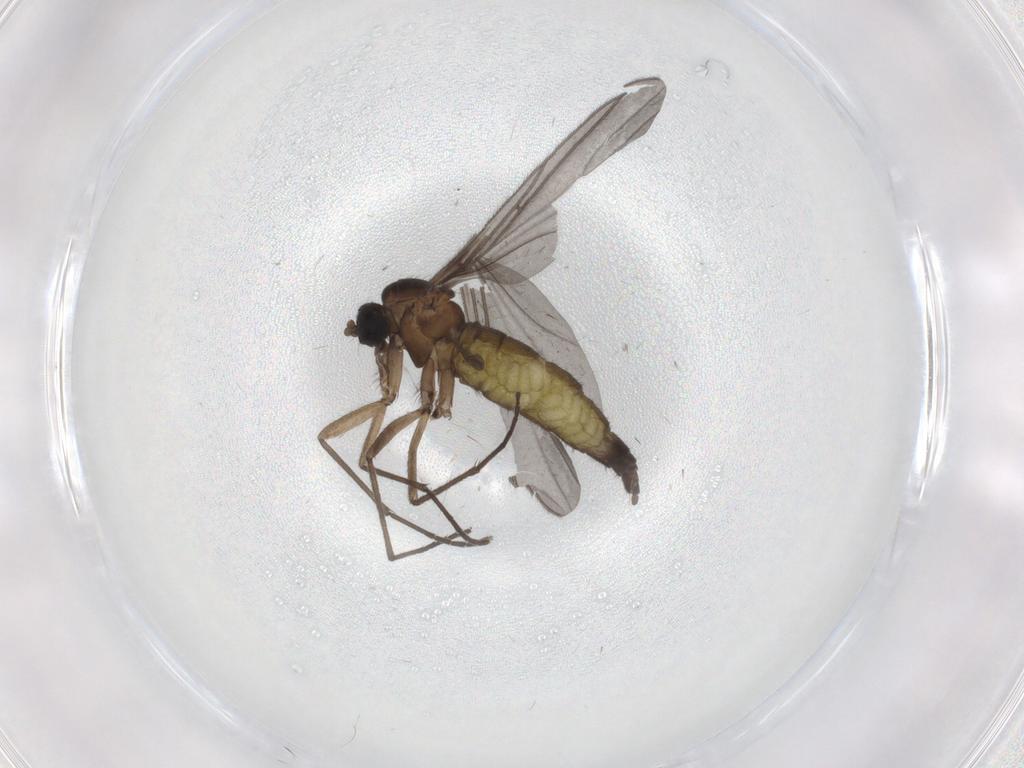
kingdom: Animalia
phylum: Arthropoda
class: Insecta
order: Diptera
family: Sciaridae
